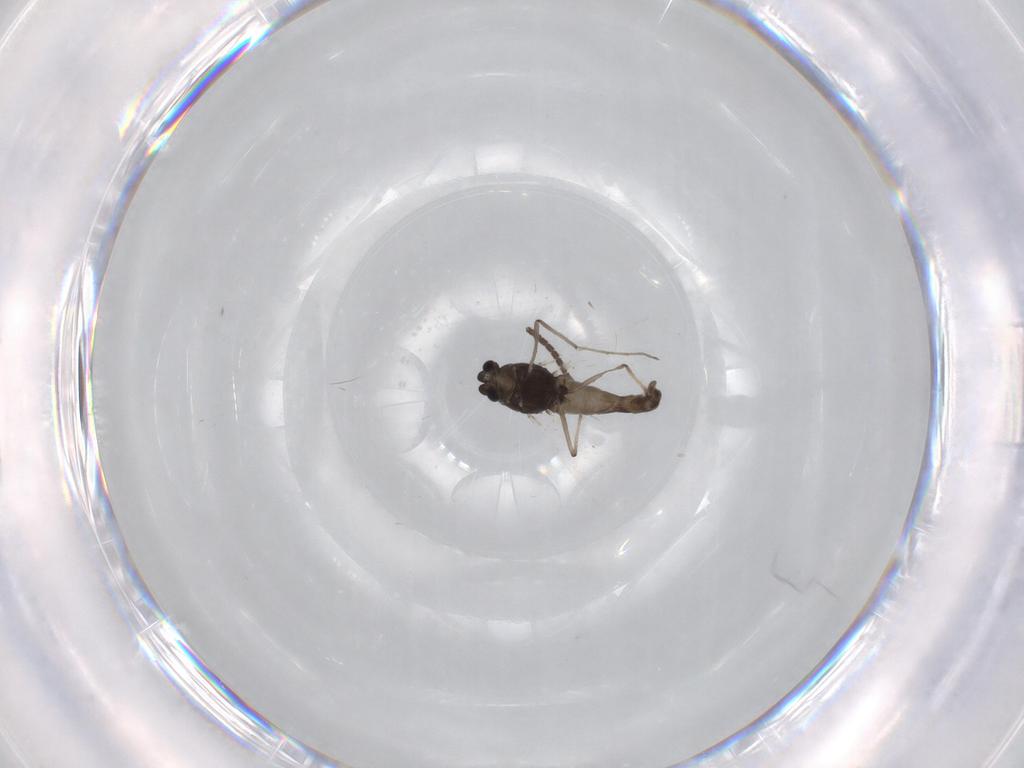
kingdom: Animalia
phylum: Arthropoda
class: Insecta
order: Diptera
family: Chironomidae
